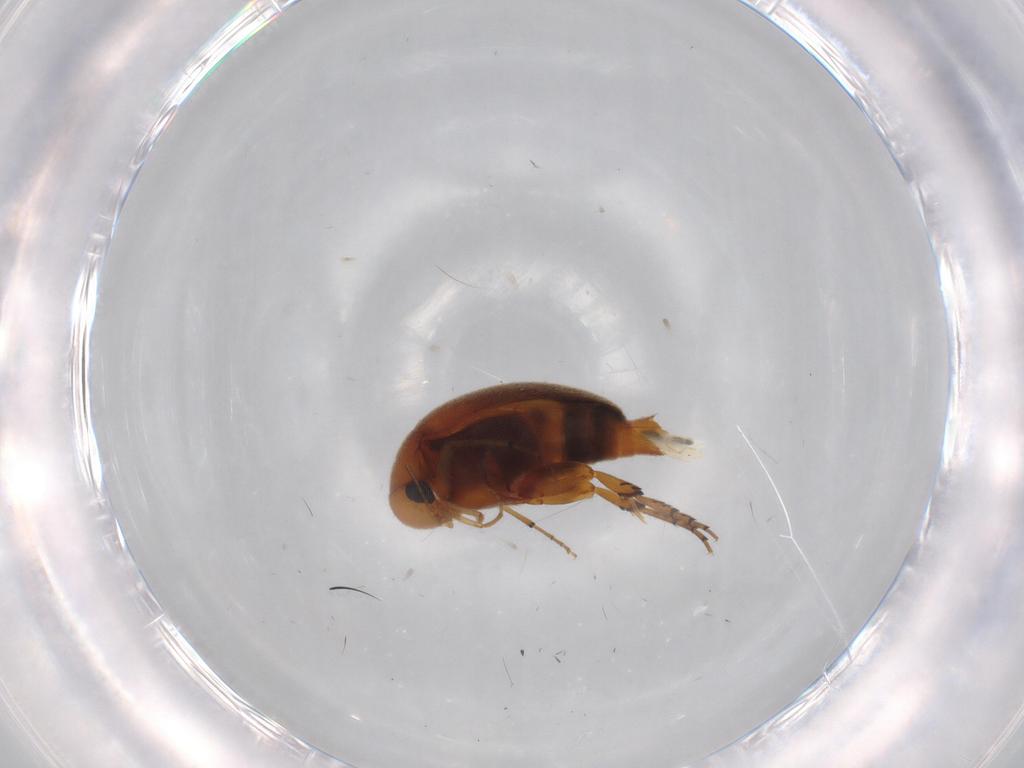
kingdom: Animalia
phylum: Arthropoda
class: Insecta
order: Coleoptera
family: Mordellidae
